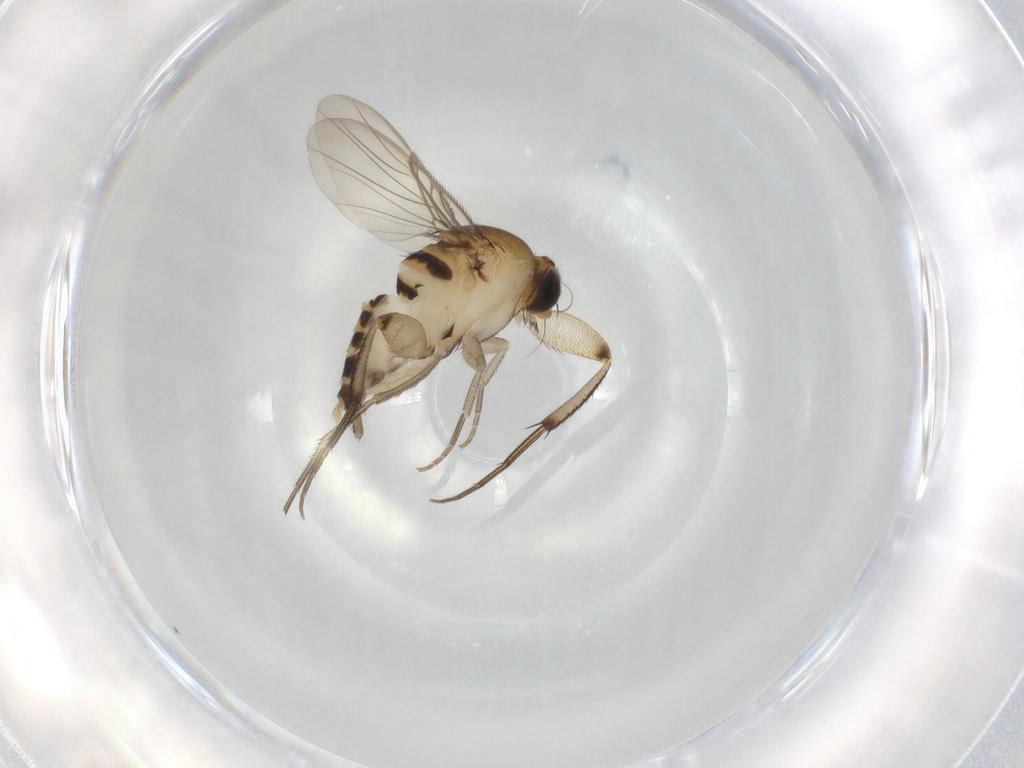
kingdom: Animalia
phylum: Arthropoda
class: Insecta
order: Diptera
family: Phoridae
